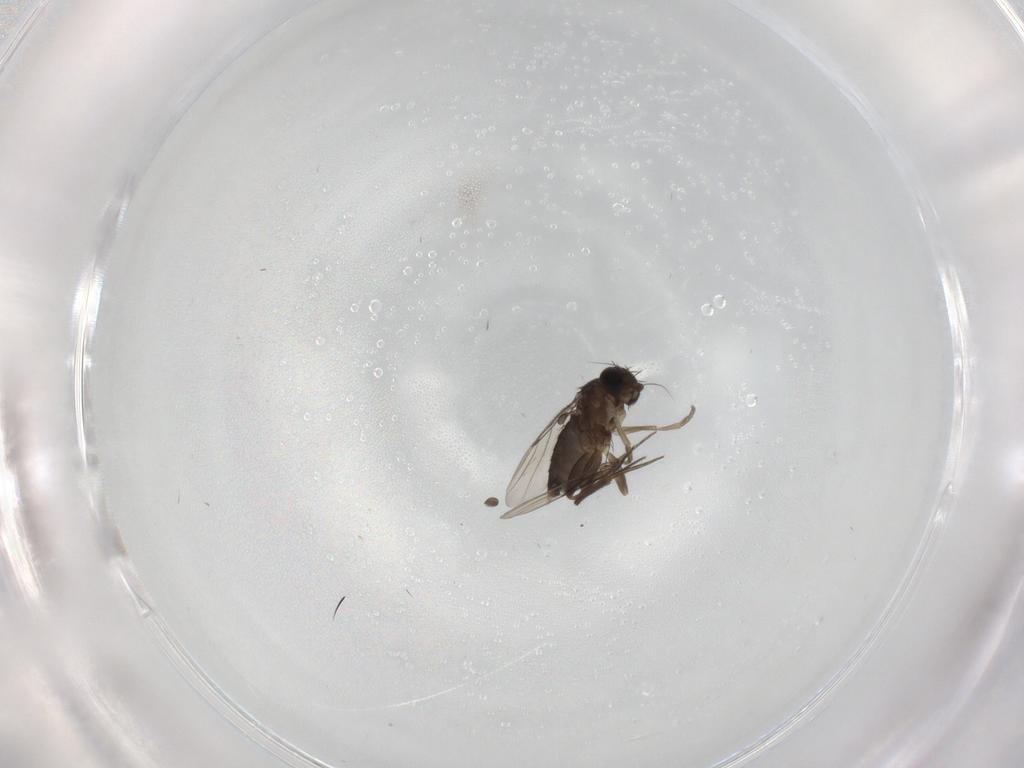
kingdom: Animalia
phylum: Arthropoda
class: Insecta
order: Diptera
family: Phoridae
